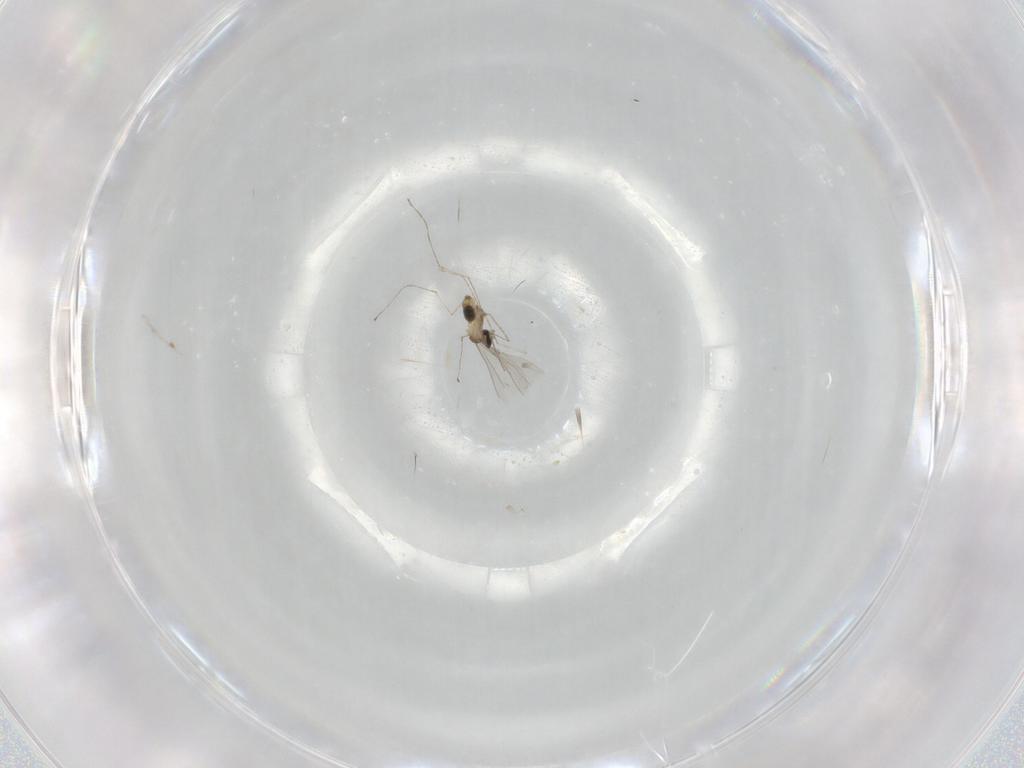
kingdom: Animalia
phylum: Arthropoda
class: Insecta
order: Diptera
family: Cecidomyiidae
